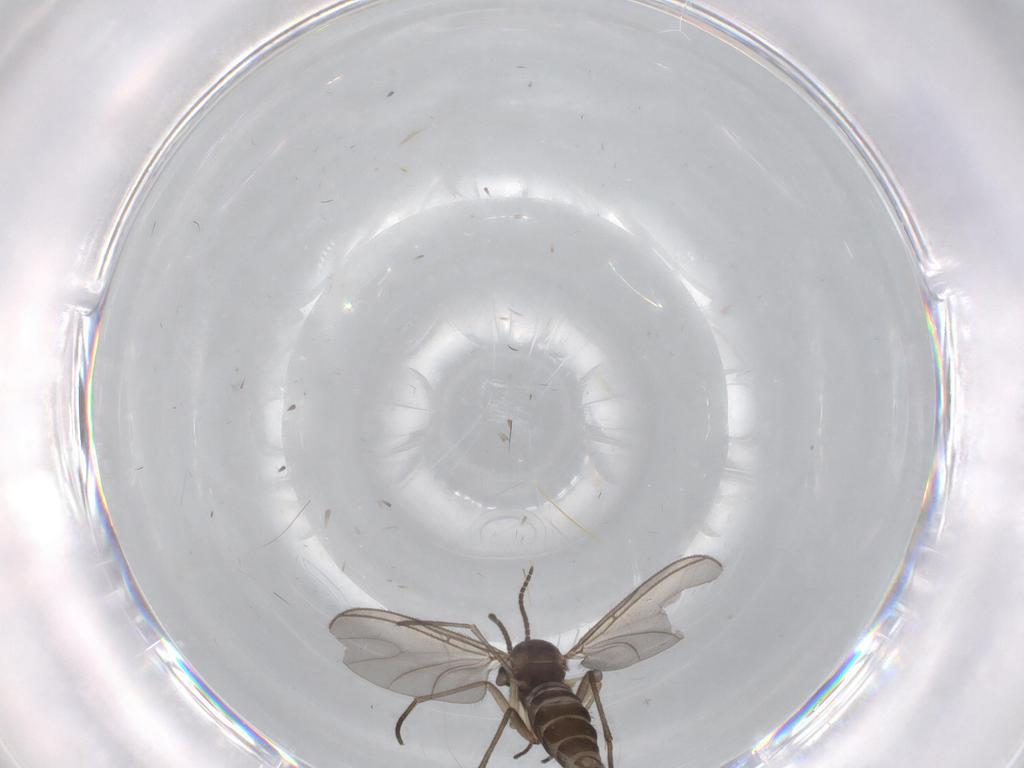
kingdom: Animalia
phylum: Arthropoda
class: Insecta
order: Diptera
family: Sciaridae
